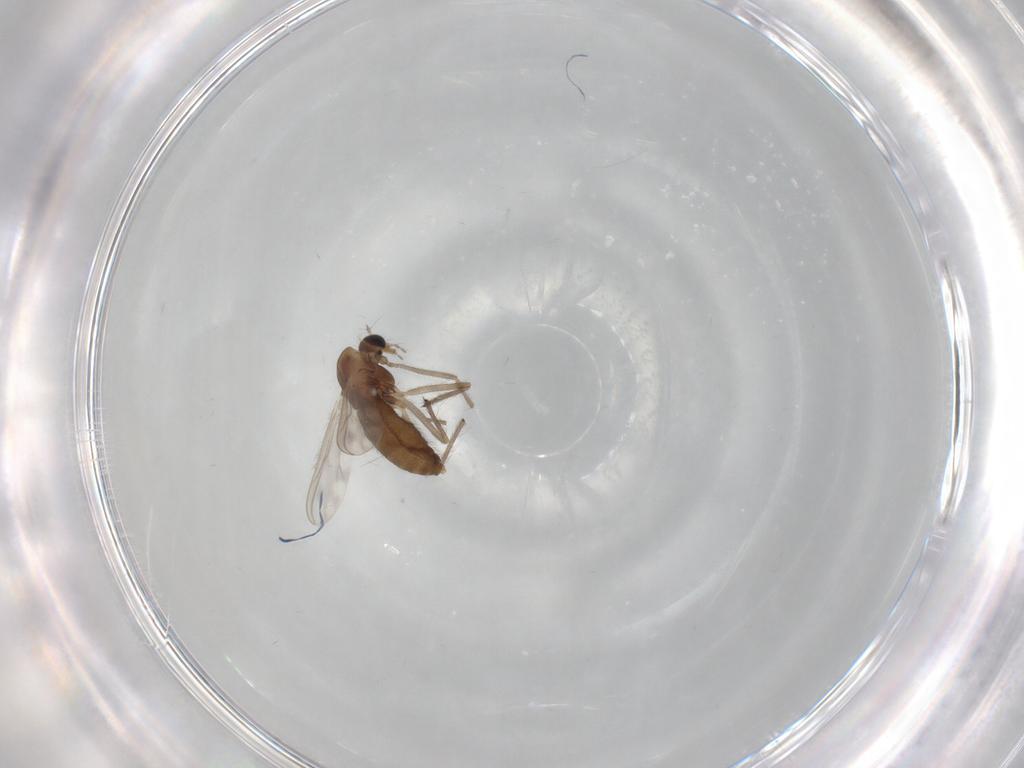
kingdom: Animalia
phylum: Arthropoda
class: Insecta
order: Diptera
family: Chironomidae
